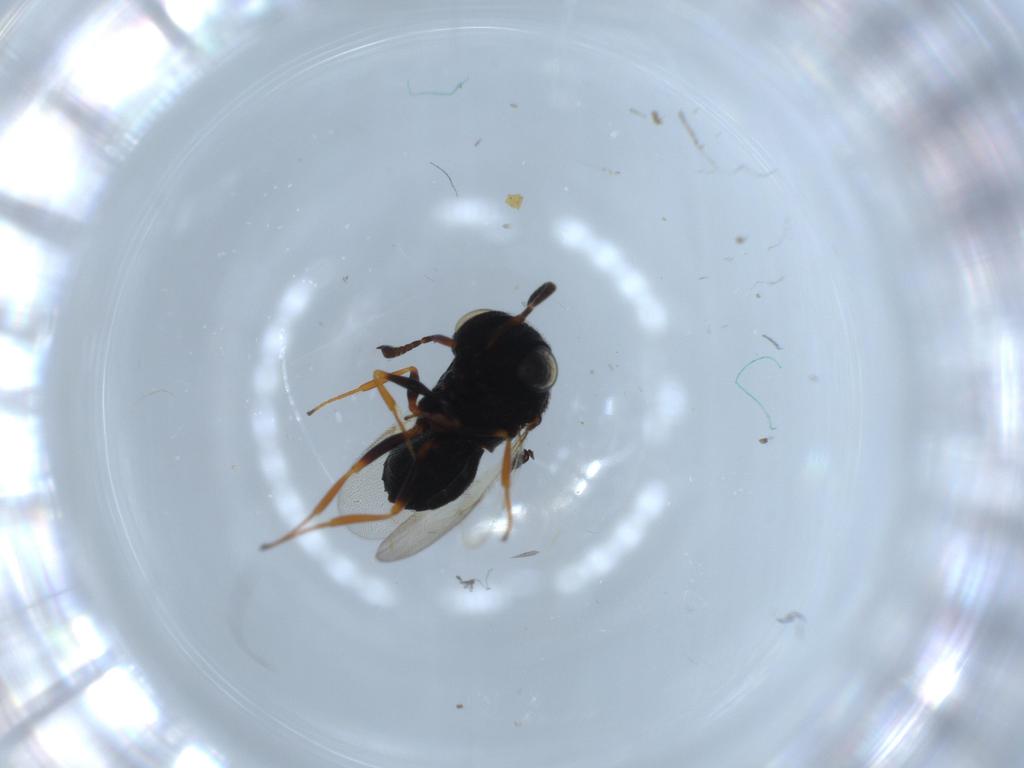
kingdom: Animalia
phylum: Arthropoda
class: Insecta
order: Hymenoptera
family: Scelionidae
